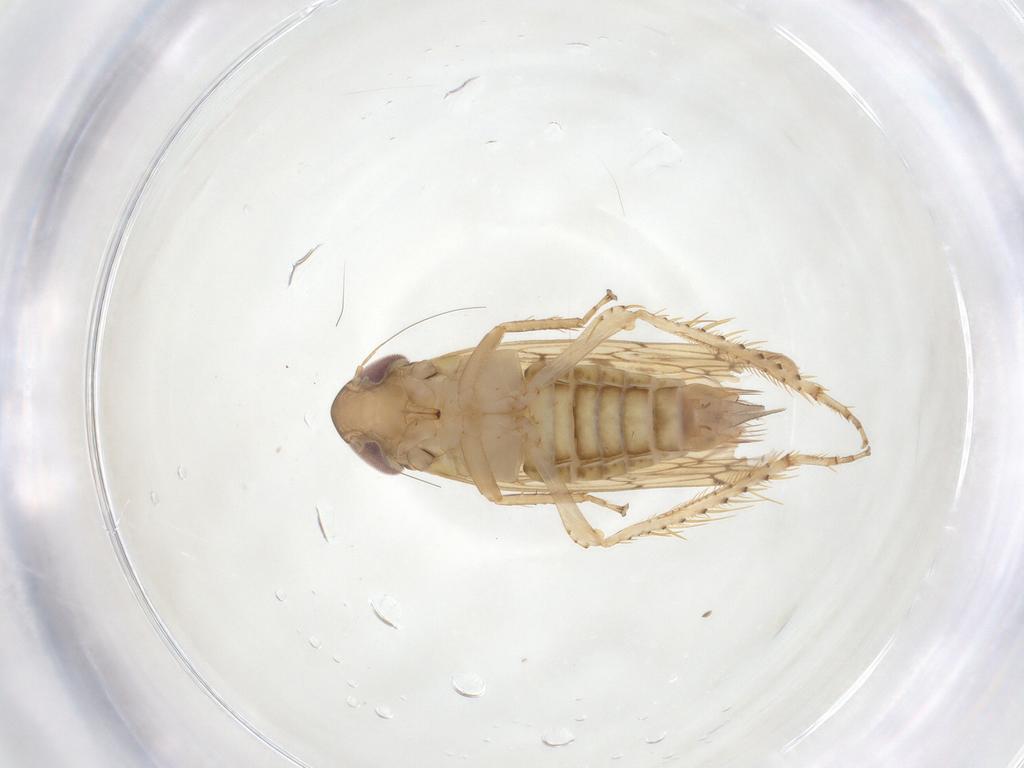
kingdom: Animalia
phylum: Arthropoda
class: Insecta
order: Hemiptera
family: Cicadellidae
